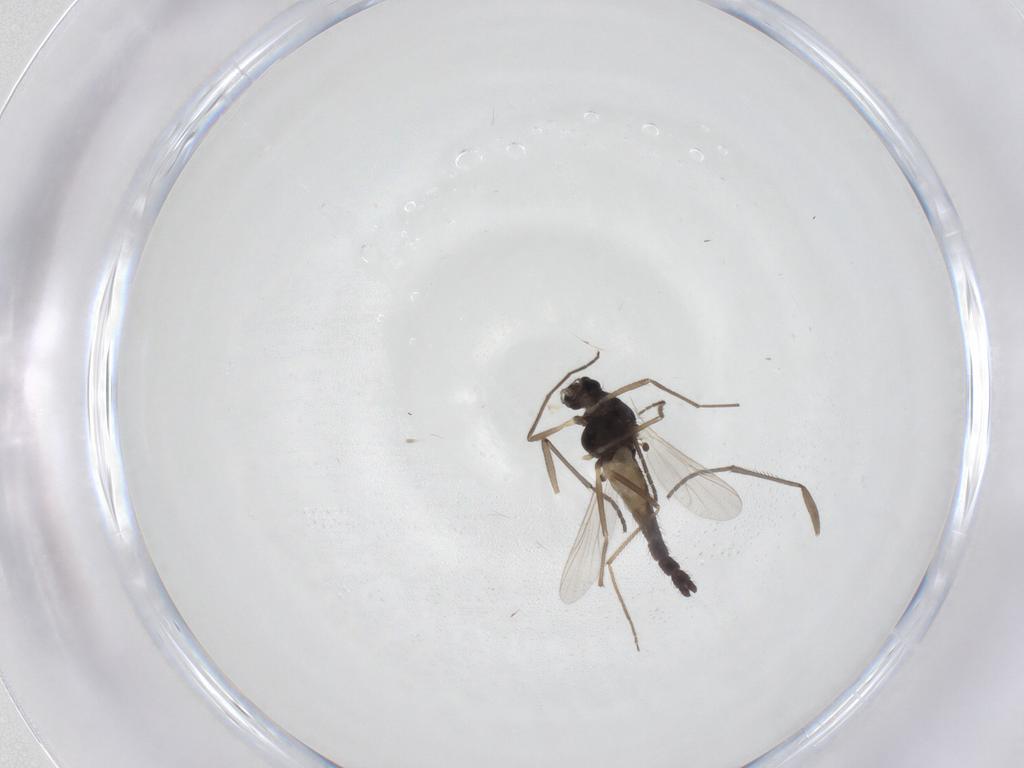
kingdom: Animalia
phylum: Arthropoda
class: Insecta
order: Diptera
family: Chironomidae
